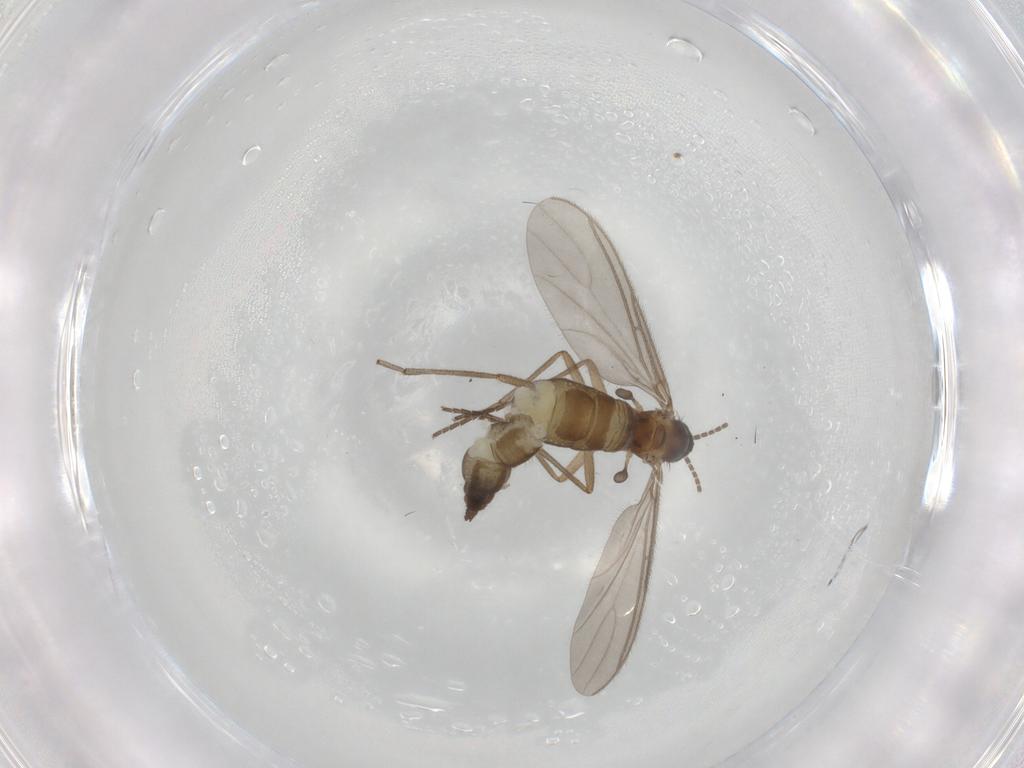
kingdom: Animalia
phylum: Arthropoda
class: Insecta
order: Diptera
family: Sciaridae
